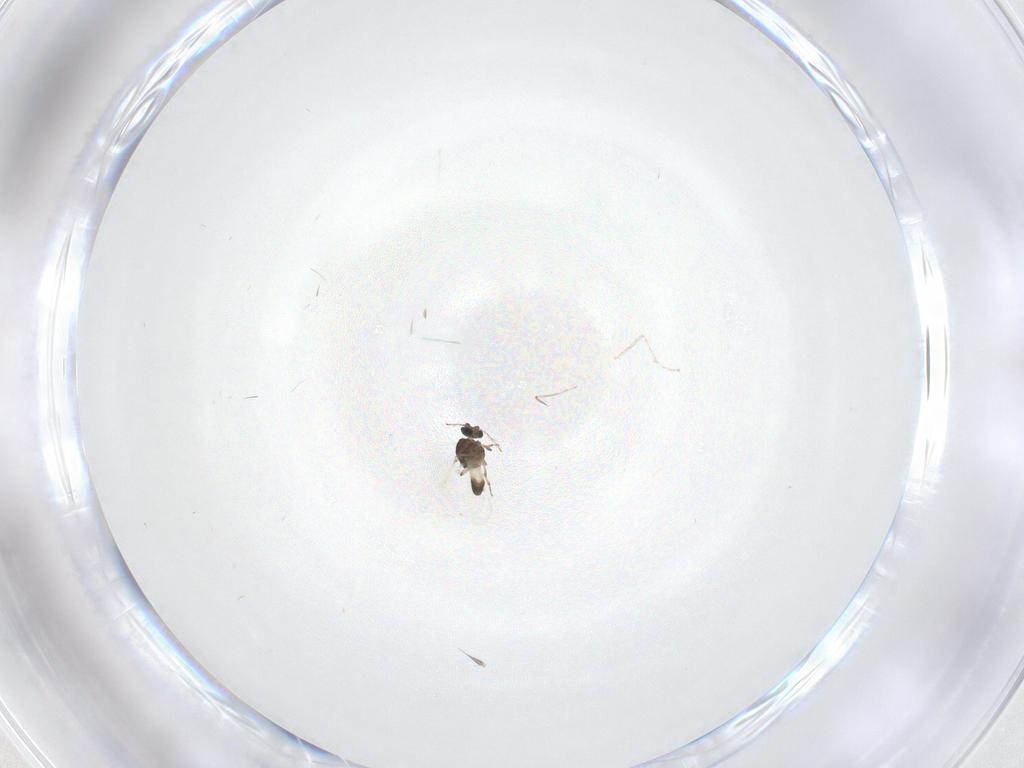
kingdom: Animalia
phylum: Arthropoda
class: Insecta
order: Diptera
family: Ceratopogonidae
